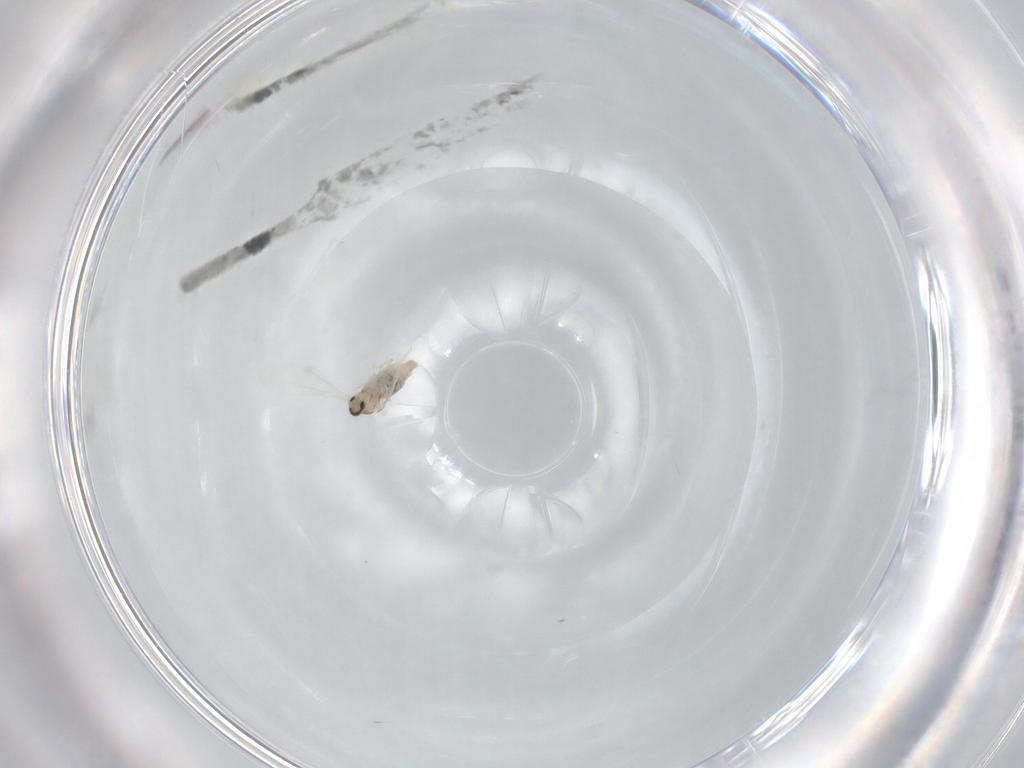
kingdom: Animalia
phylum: Arthropoda
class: Insecta
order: Diptera
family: Cecidomyiidae
